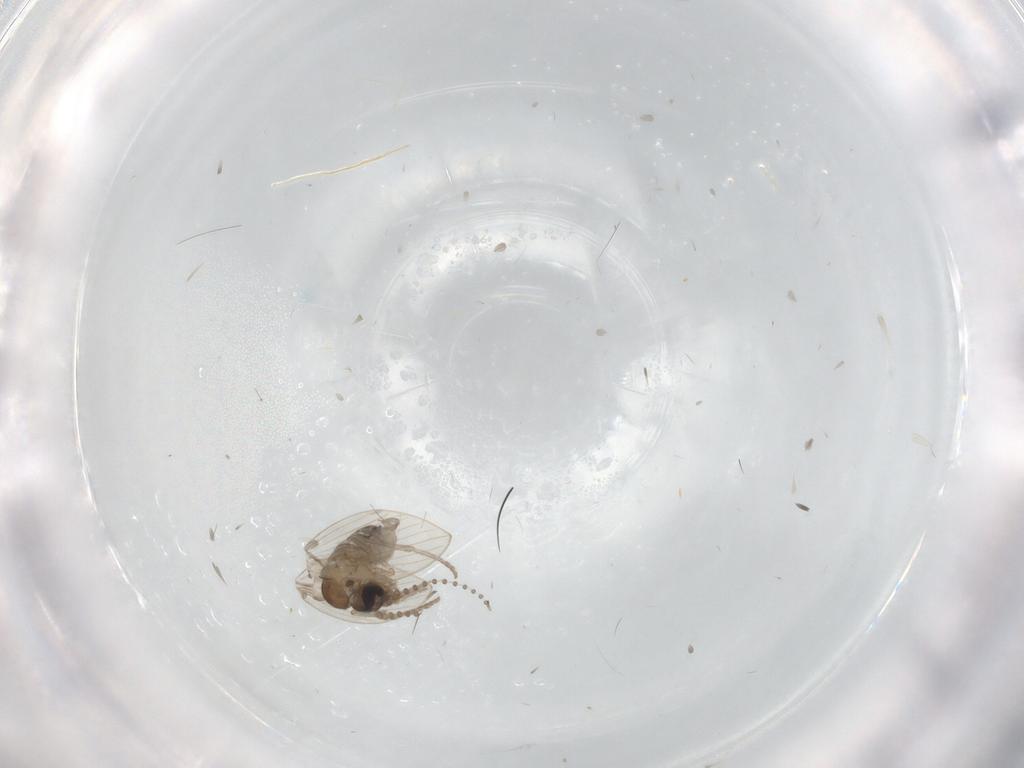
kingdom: Animalia
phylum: Arthropoda
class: Insecta
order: Diptera
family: Psychodidae
